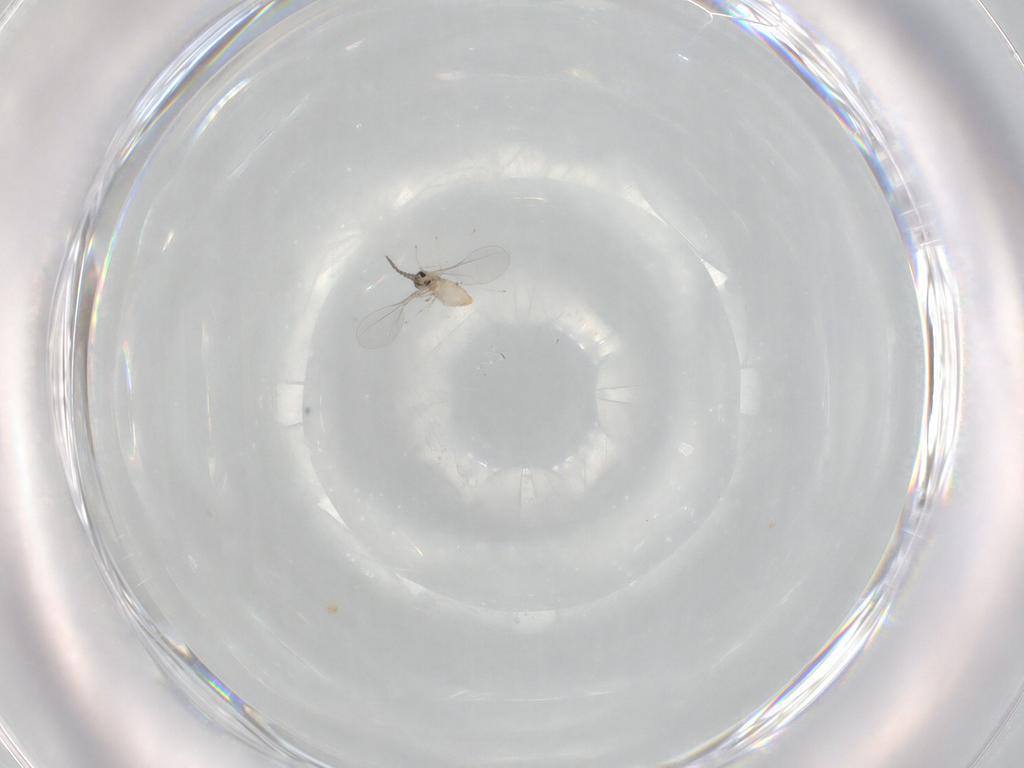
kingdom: Animalia
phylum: Arthropoda
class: Insecta
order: Diptera
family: Cecidomyiidae
